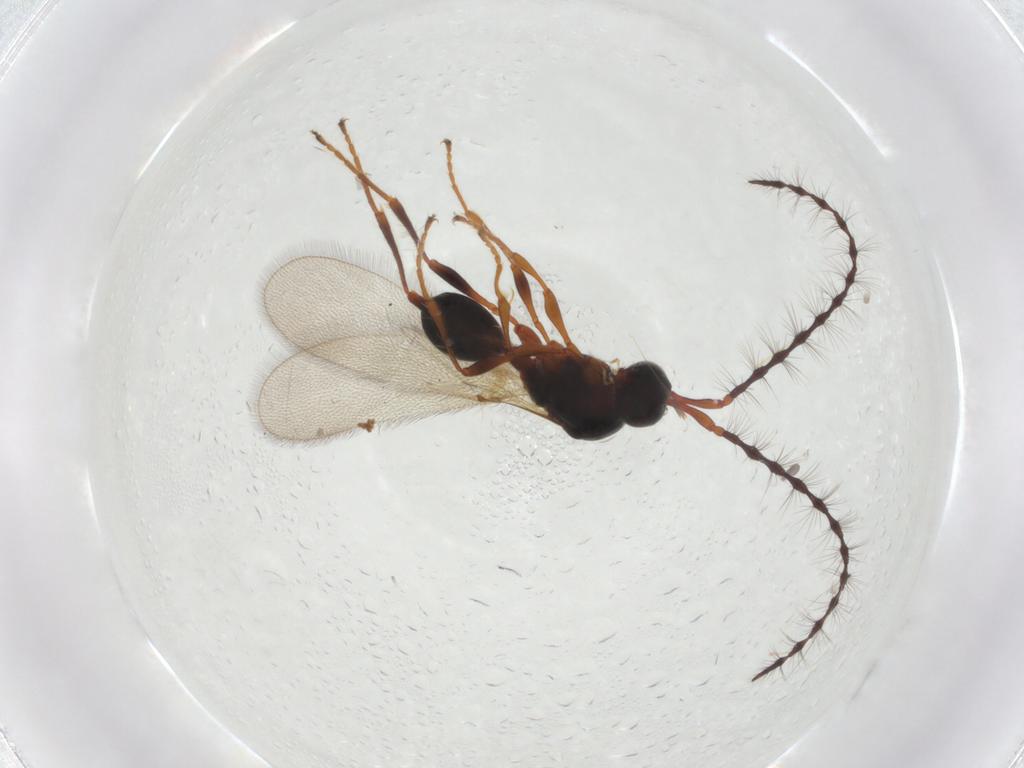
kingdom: Animalia
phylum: Arthropoda
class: Insecta
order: Hymenoptera
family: Diapriidae
